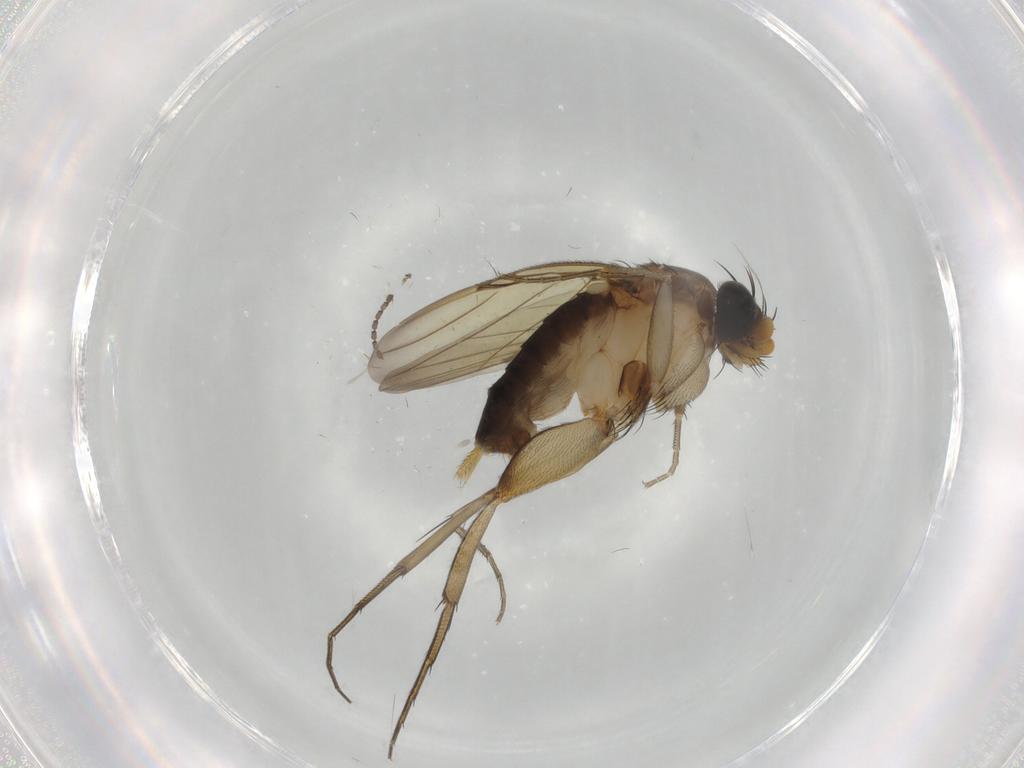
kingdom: Animalia
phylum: Arthropoda
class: Insecta
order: Diptera
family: Phoridae
